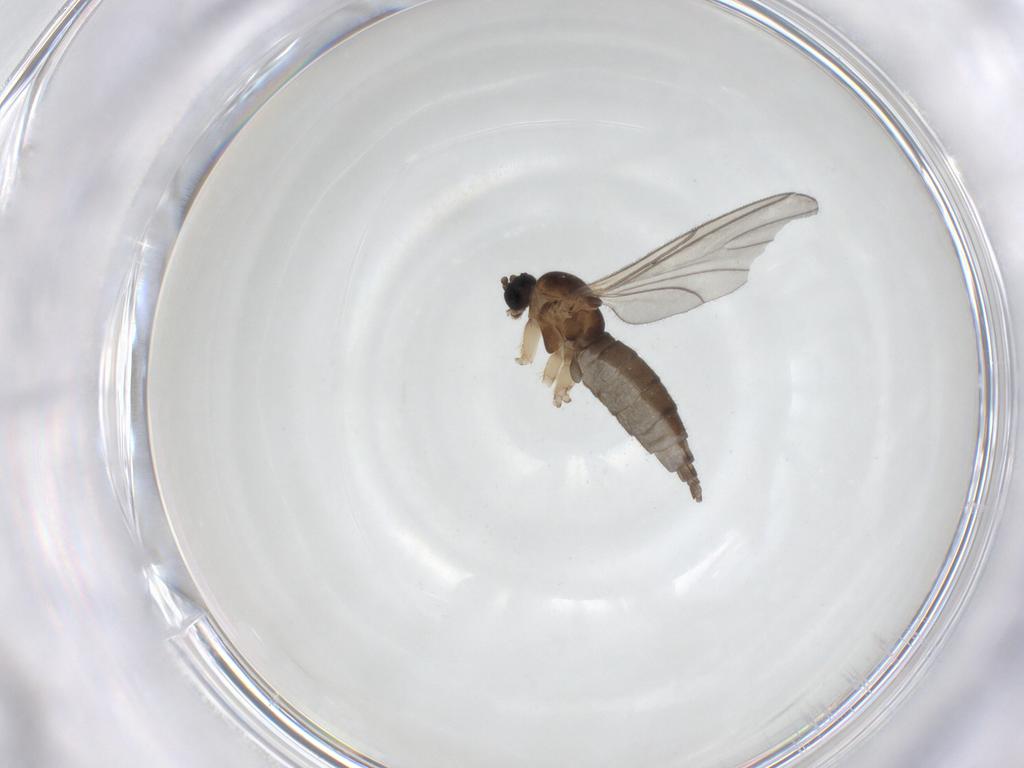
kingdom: Animalia
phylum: Arthropoda
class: Insecta
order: Diptera
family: Sciaridae
